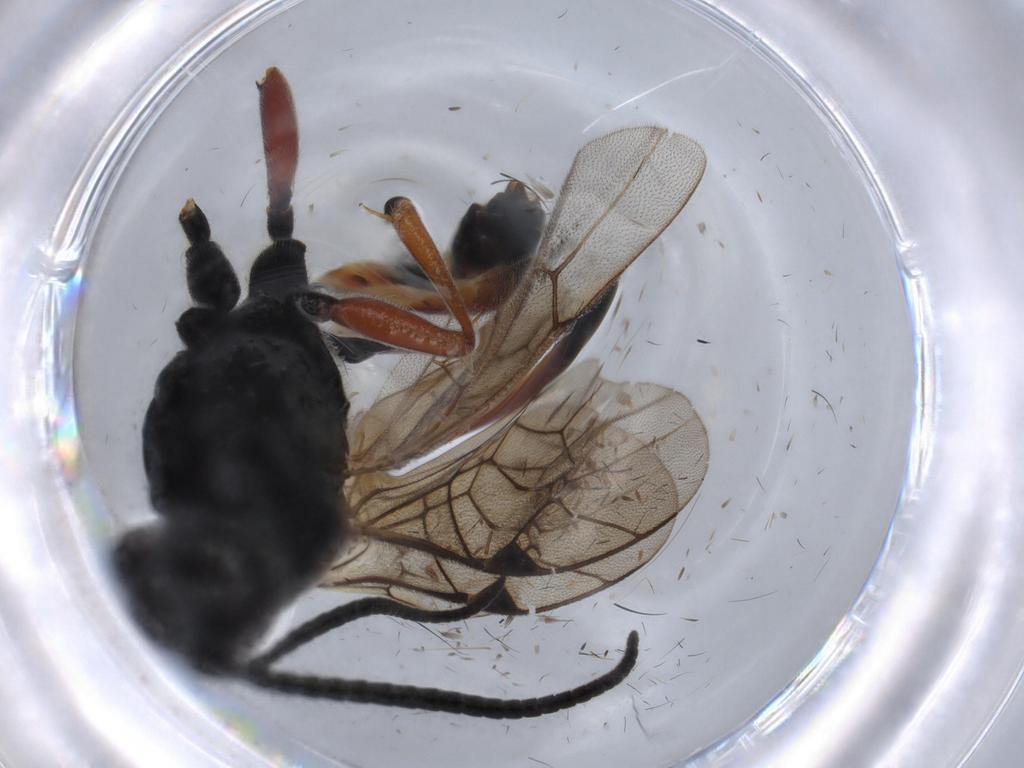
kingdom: Animalia
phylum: Arthropoda
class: Insecta
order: Hymenoptera
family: Ichneumonidae
